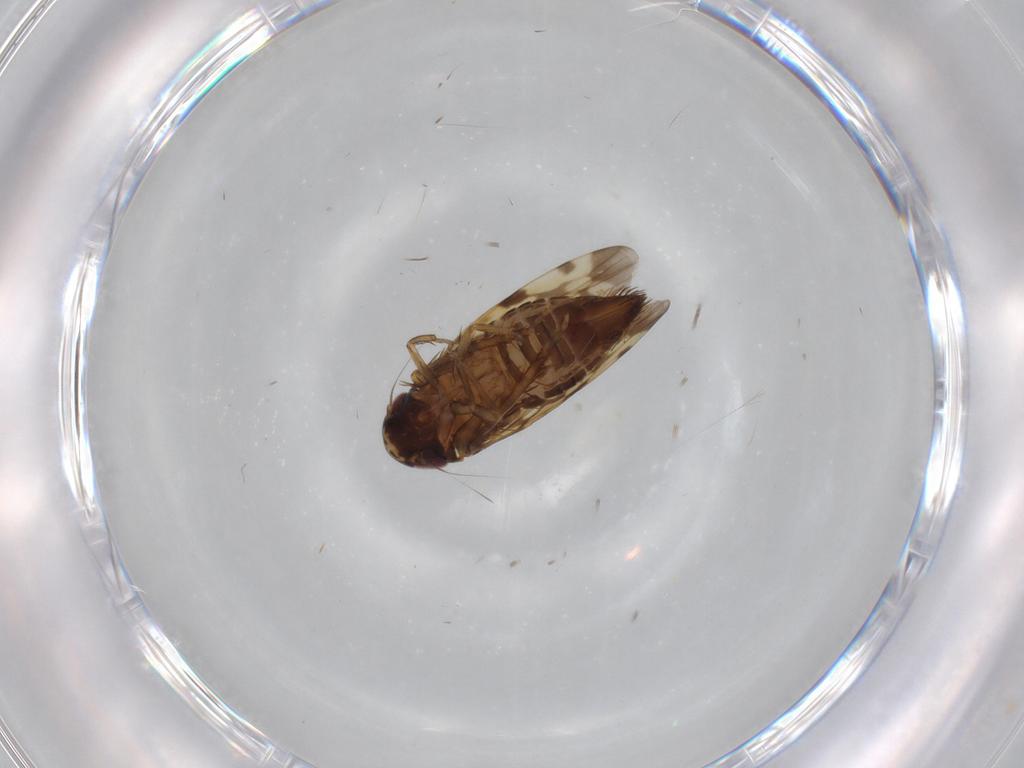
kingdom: Animalia
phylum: Arthropoda
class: Insecta
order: Hemiptera
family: Cicadellidae
